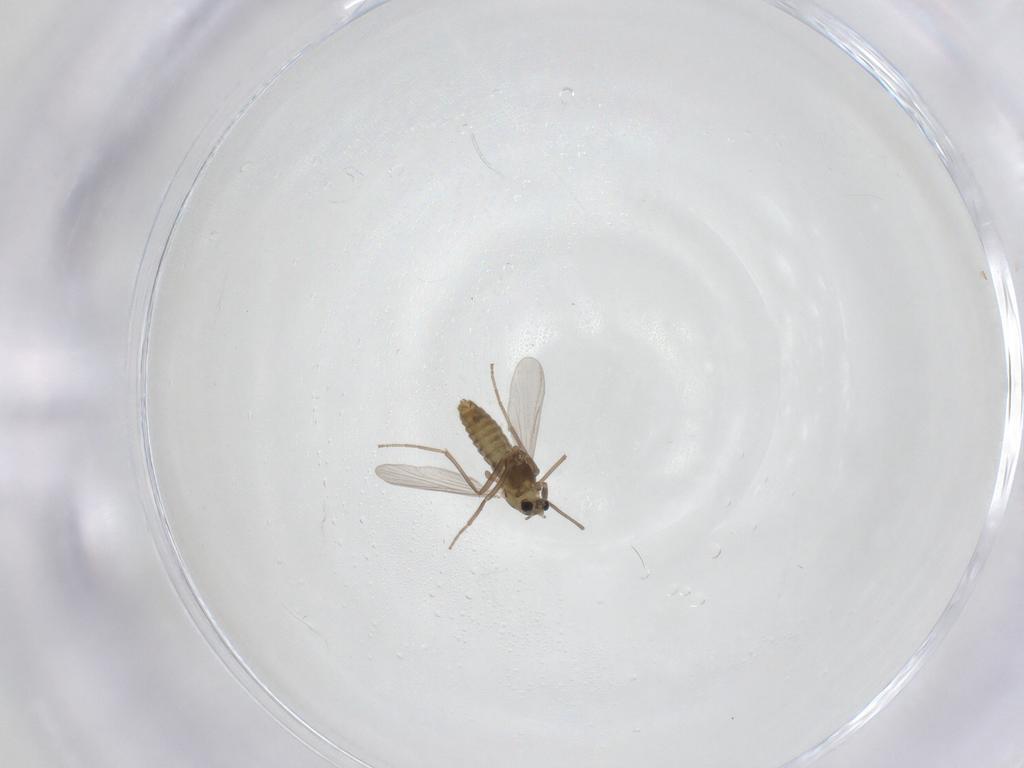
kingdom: Animalia
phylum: Arthropoda
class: Insecta
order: Diptera
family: Chironomidae
